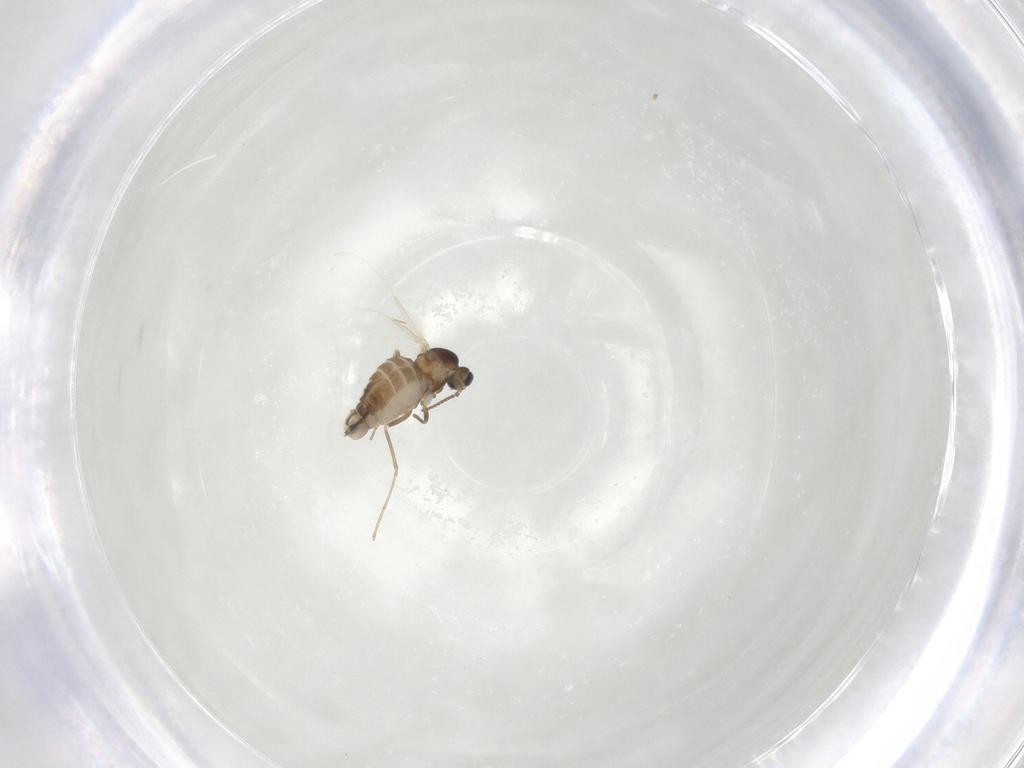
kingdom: Animalia
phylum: Arthropoda
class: Insecta
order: Diptera
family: Cecidomyiidae
